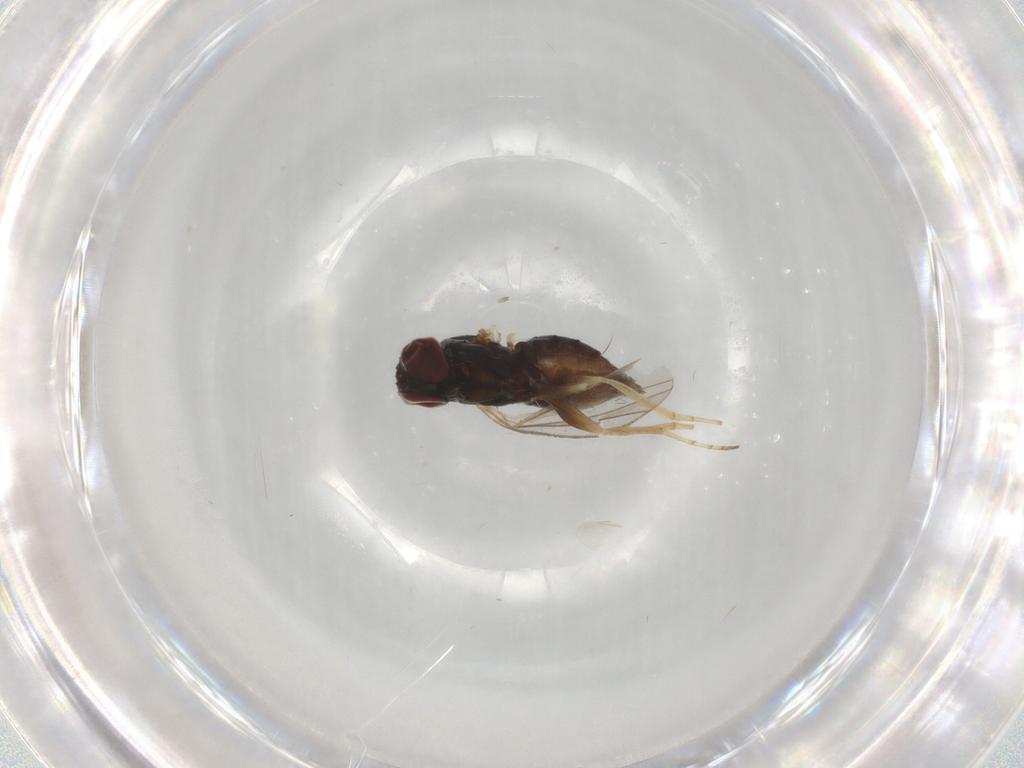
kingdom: Animalia
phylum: Arthropoda
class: Insecta
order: Diptera
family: Dolichopodidae
